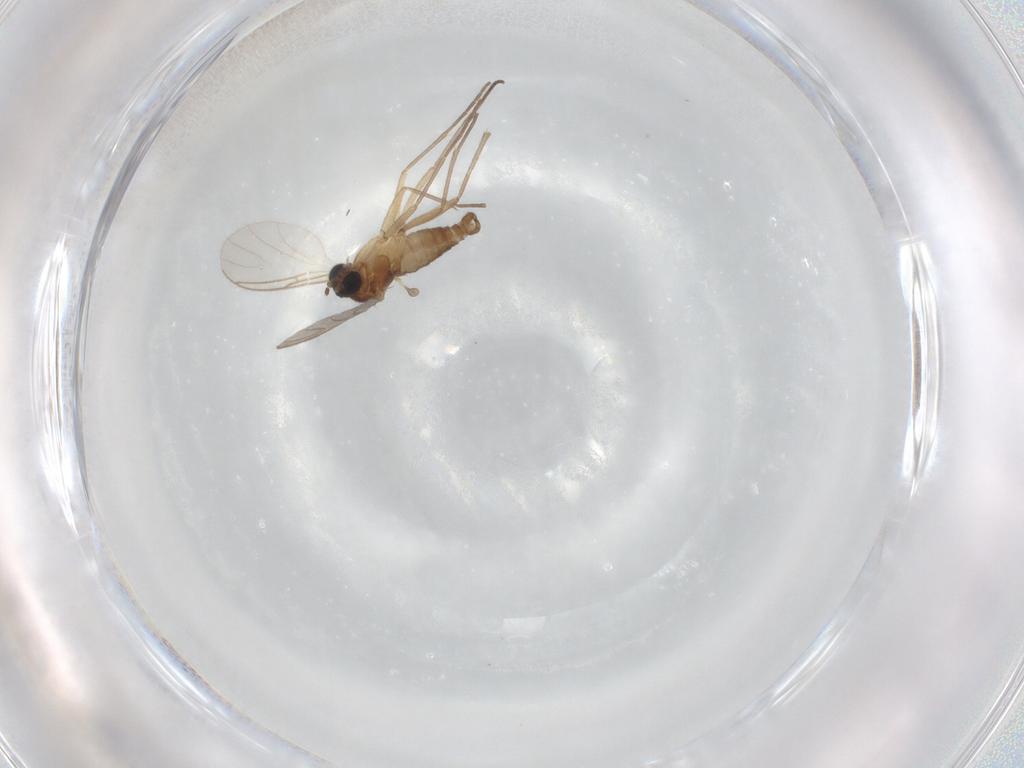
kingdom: Animalia
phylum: Arthropoda
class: Insecta
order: Diptera
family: Sciaridae
